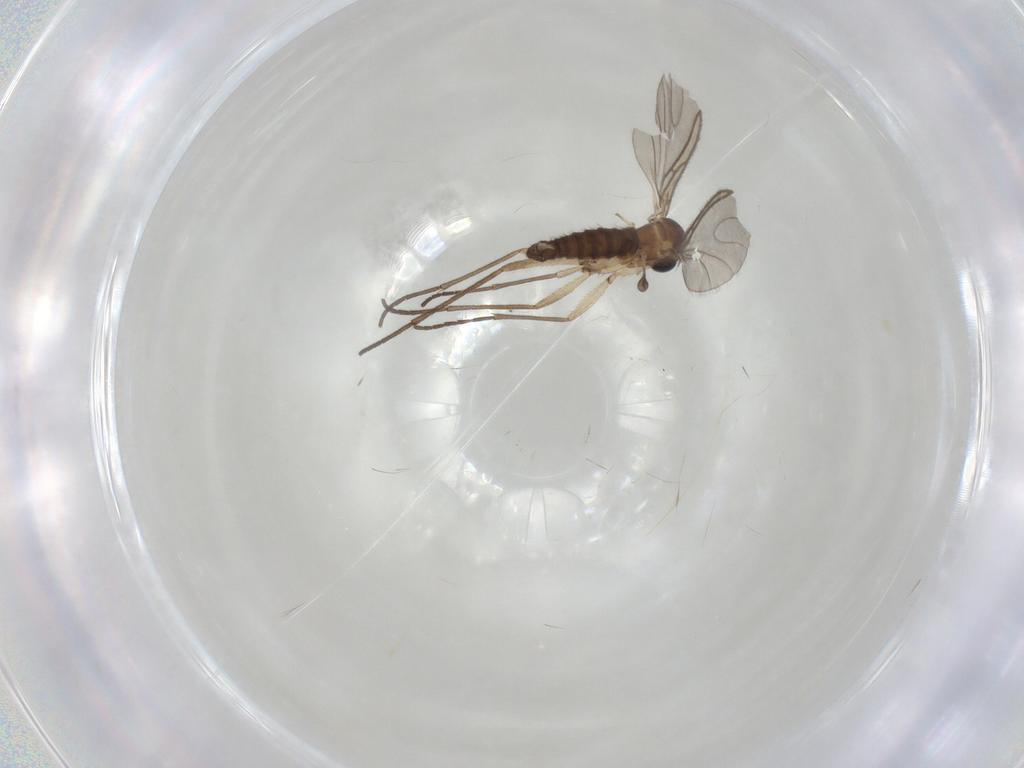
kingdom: Animalia
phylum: Arthropoda
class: Insecta
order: Diptera
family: Sciaridae
